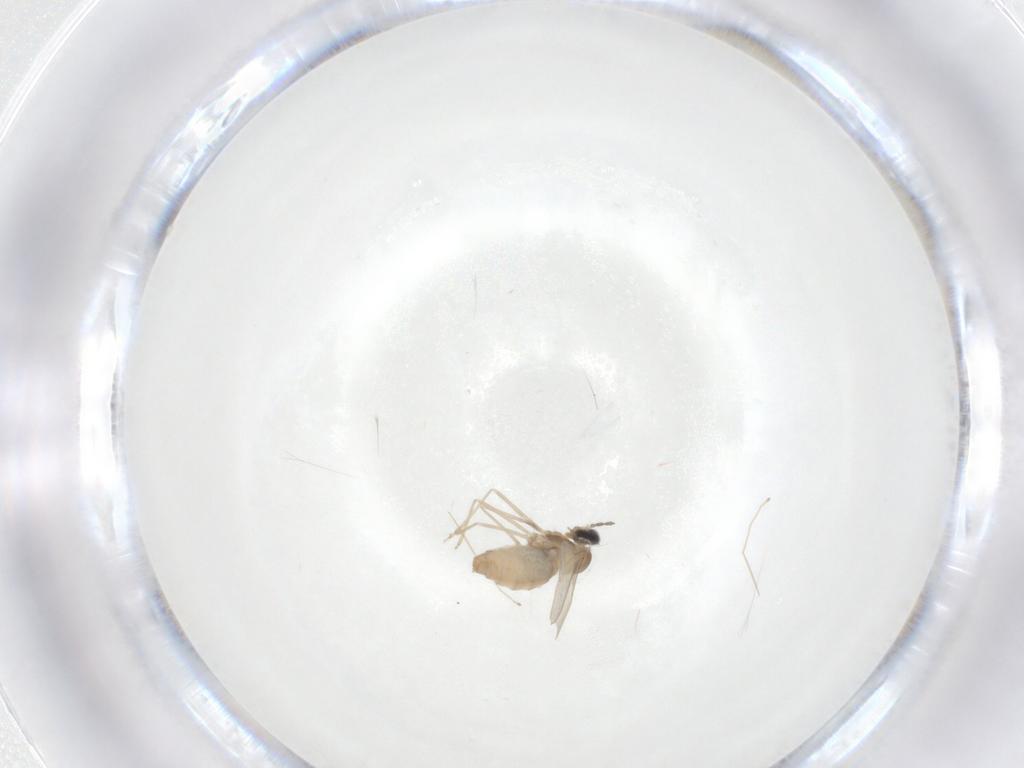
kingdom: Animalia
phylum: Arthropoda
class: Insecta
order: Diptera
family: Cecidomyiidae
